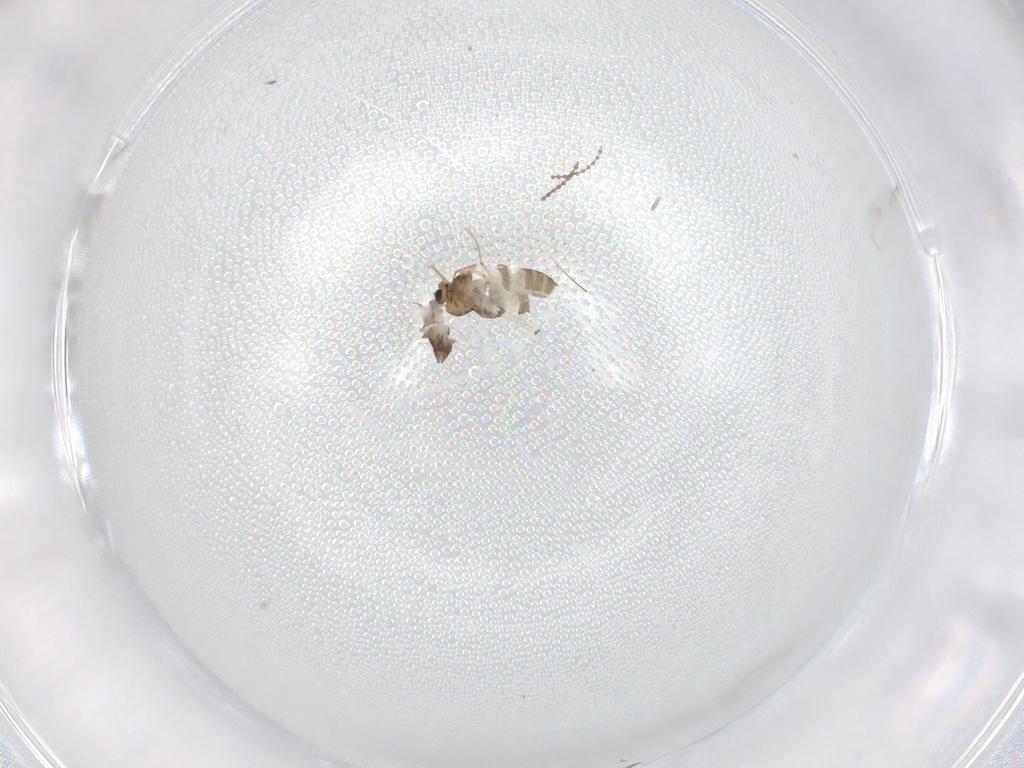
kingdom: Animalia
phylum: Arthropoda
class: Insecta
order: Diptera
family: Chironomidae
